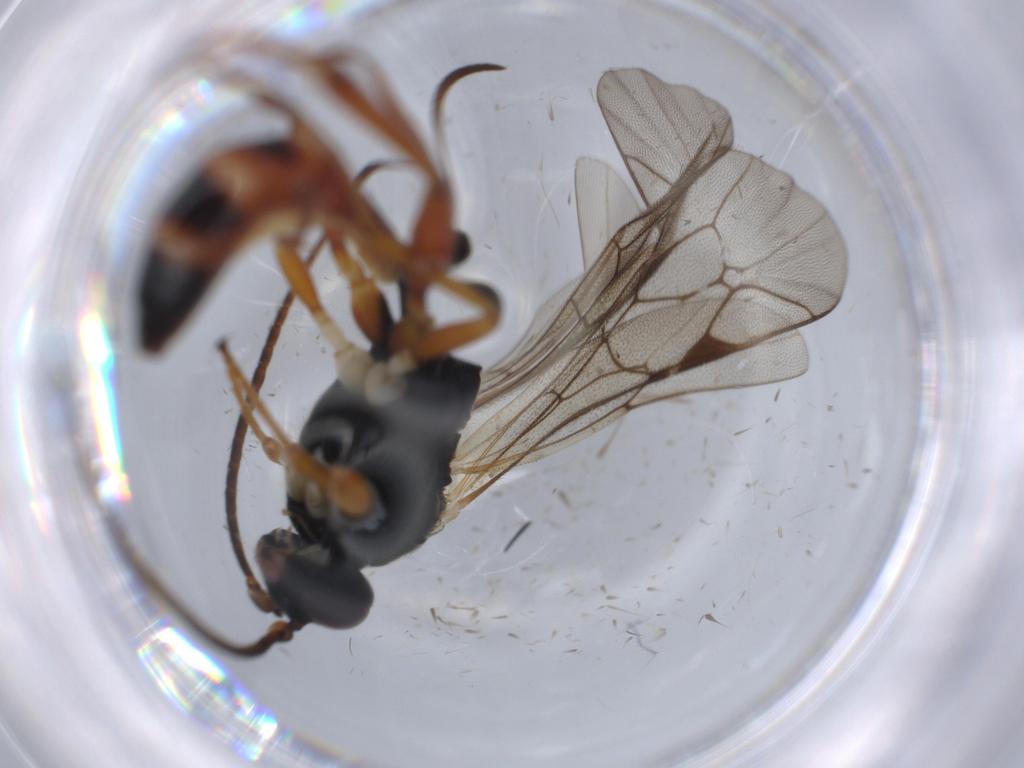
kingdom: Animalia
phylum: Arthropoda
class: Insecta
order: Hymenoptera
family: Ichneumonidae
